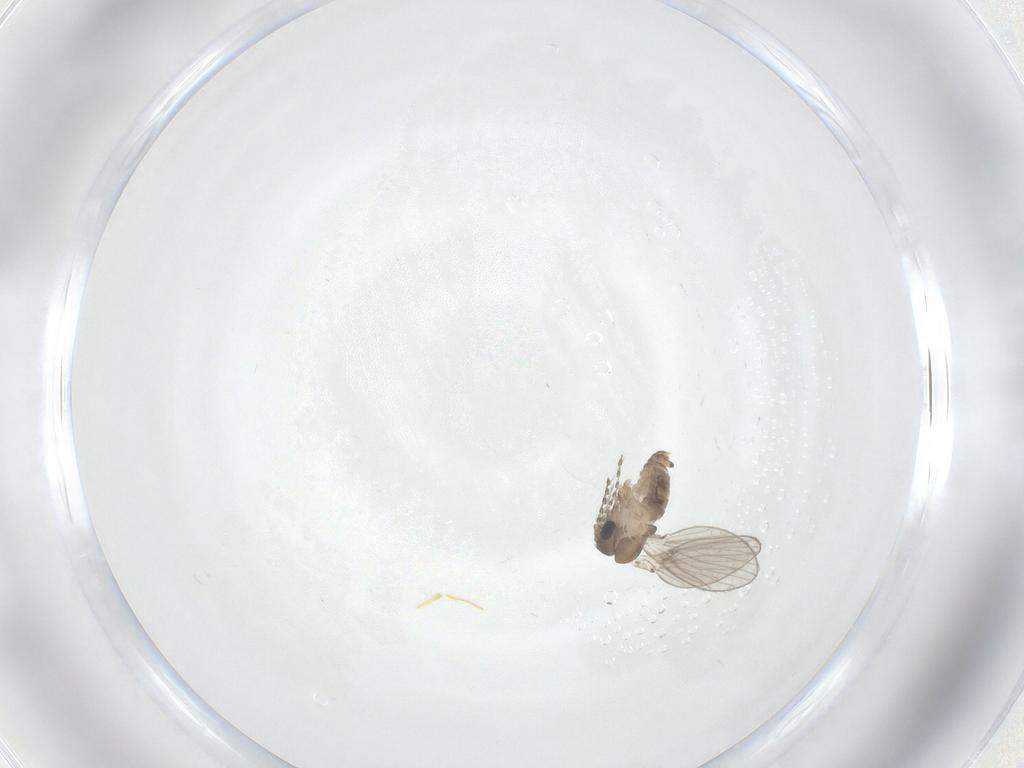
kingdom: Animalia
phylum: Arthropoda
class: Insecta
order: Diptera
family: Psychodidae
